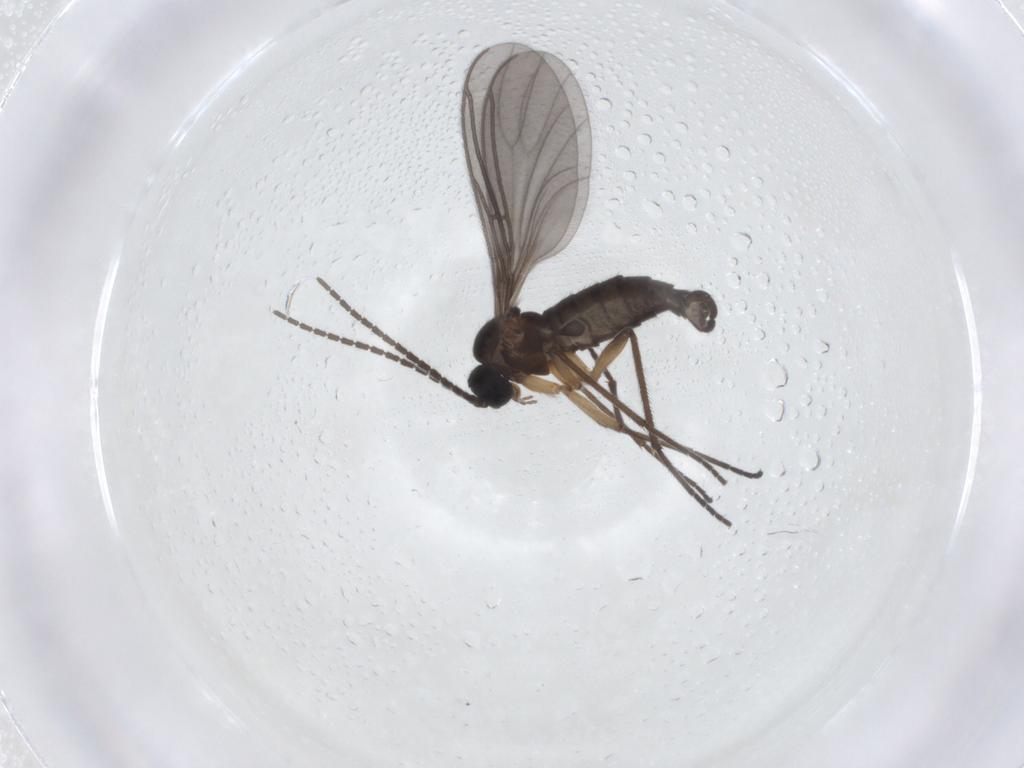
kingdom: Animalia
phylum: Arthropoda
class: Insecta
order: Diptera
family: Sciaridae
